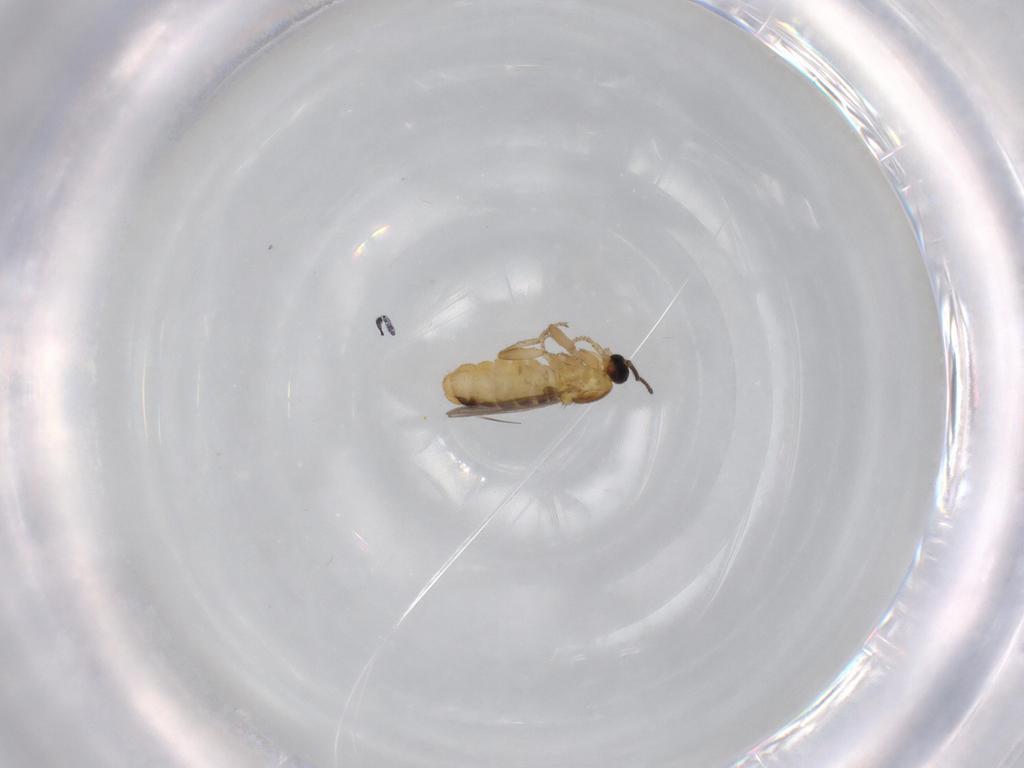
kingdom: Animalia
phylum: Arthropoda
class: Insecta
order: Diptera
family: Scatopsidae
